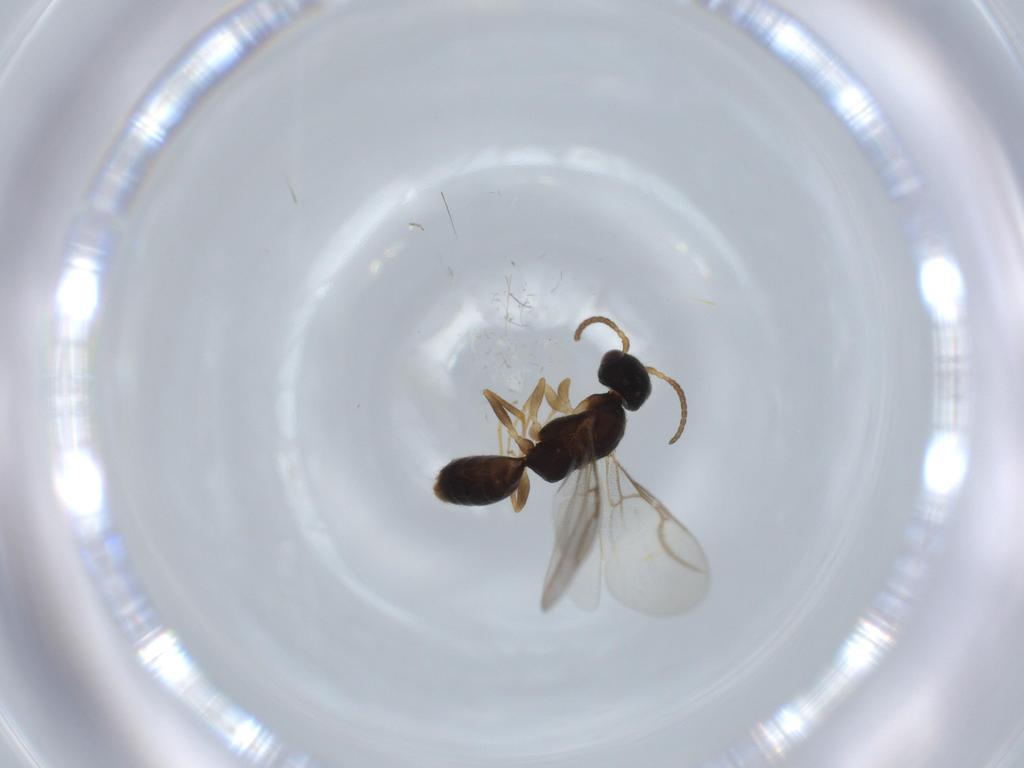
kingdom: Animalia
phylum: Arthropoda
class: Insecta
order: Hymenoptera
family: Bethylidae
